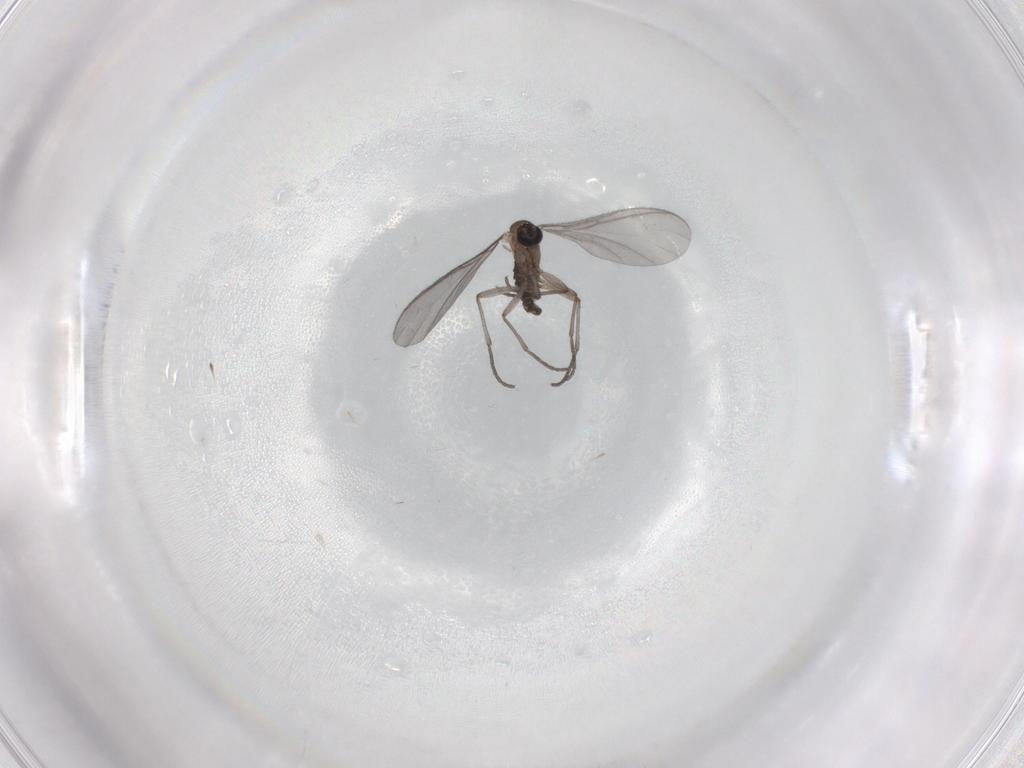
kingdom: Animalia
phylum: Arthropoda
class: Insecta
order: Diptera
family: Sciaridae
